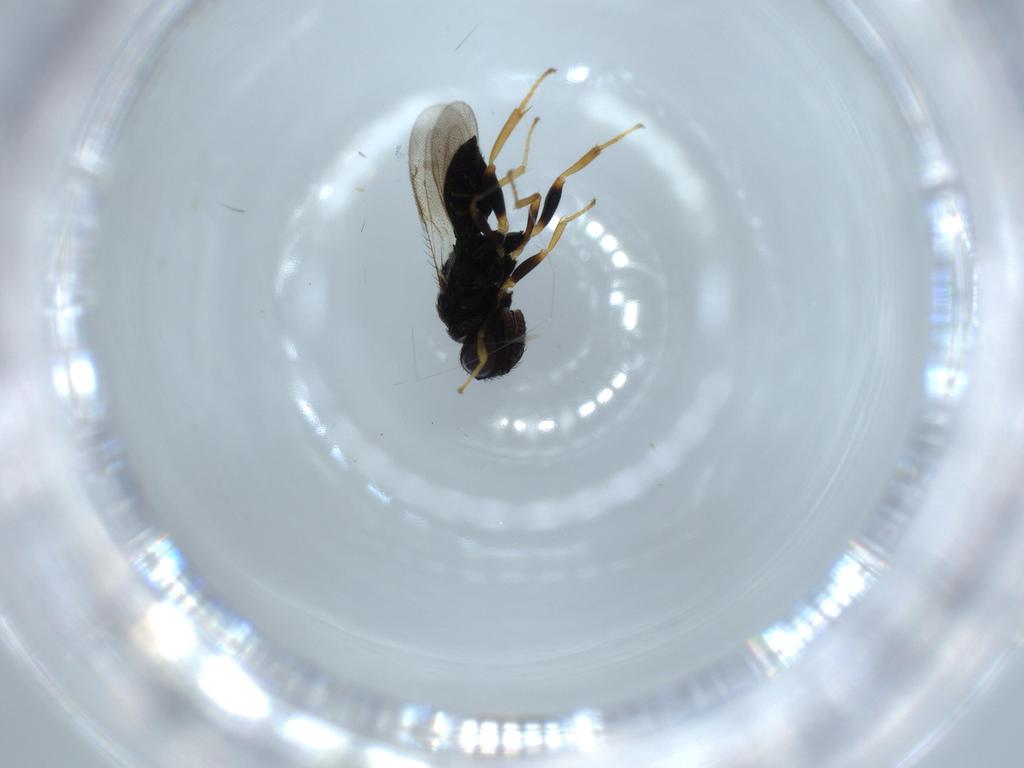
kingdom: Animalia
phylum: Arthropoda
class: Insecta
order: Hymenoptera
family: Pteromalidae
